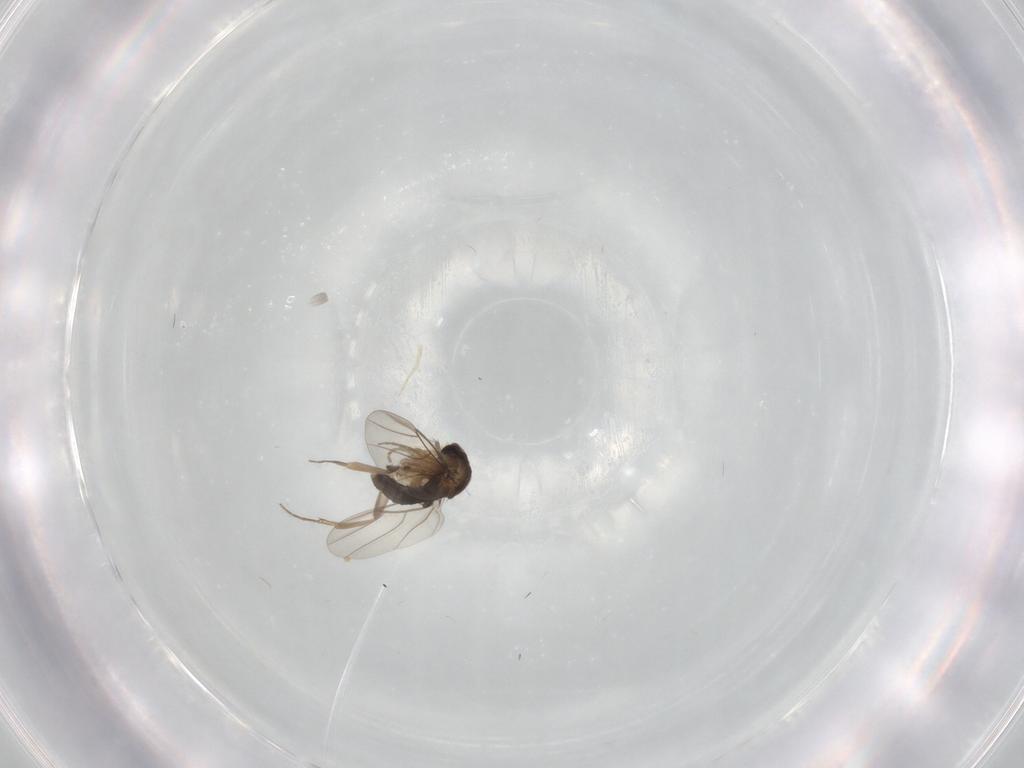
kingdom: Animalia
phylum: Arthropoda
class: Insecta
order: Diptera
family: Phoridae
